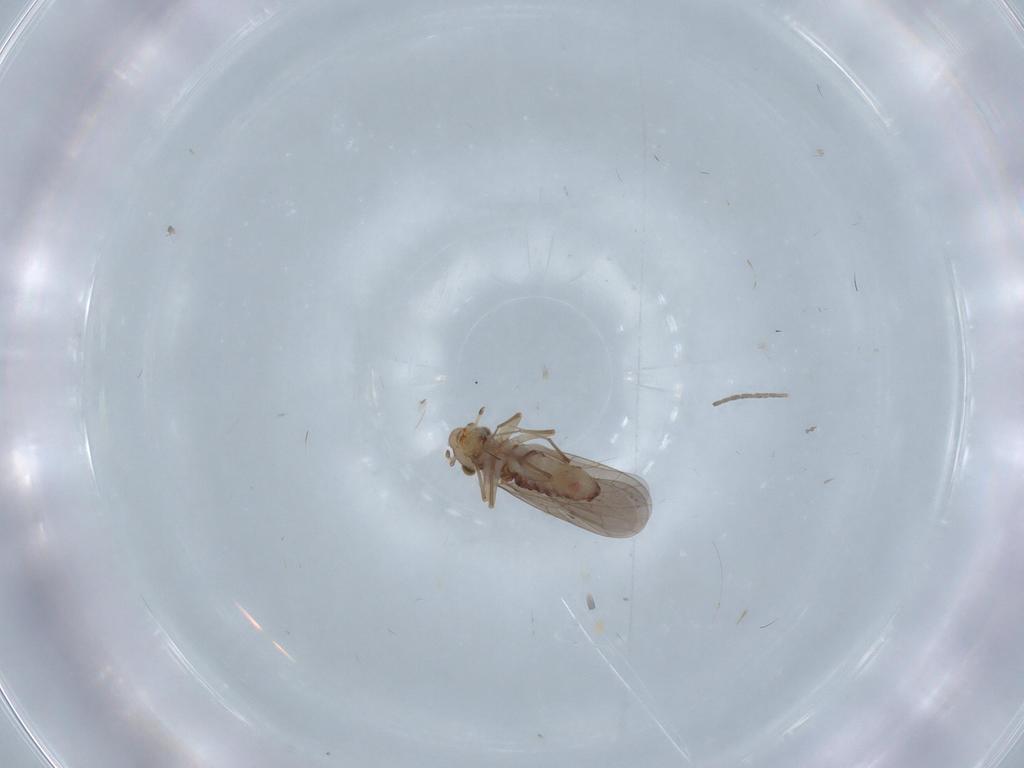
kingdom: Animalia
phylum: Arthropoda
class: Insecta
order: Psocodea
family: Lepidopsocidae
